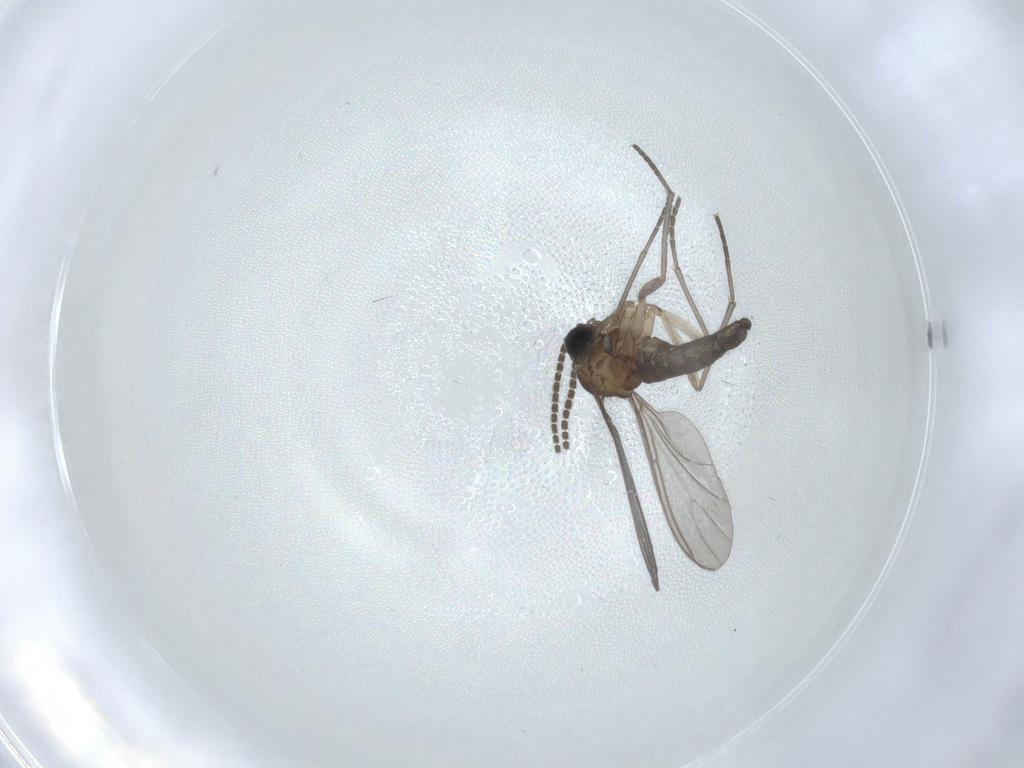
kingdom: Animalia
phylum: Arthropoda
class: Insecta
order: Diptera
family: Sciaridae
